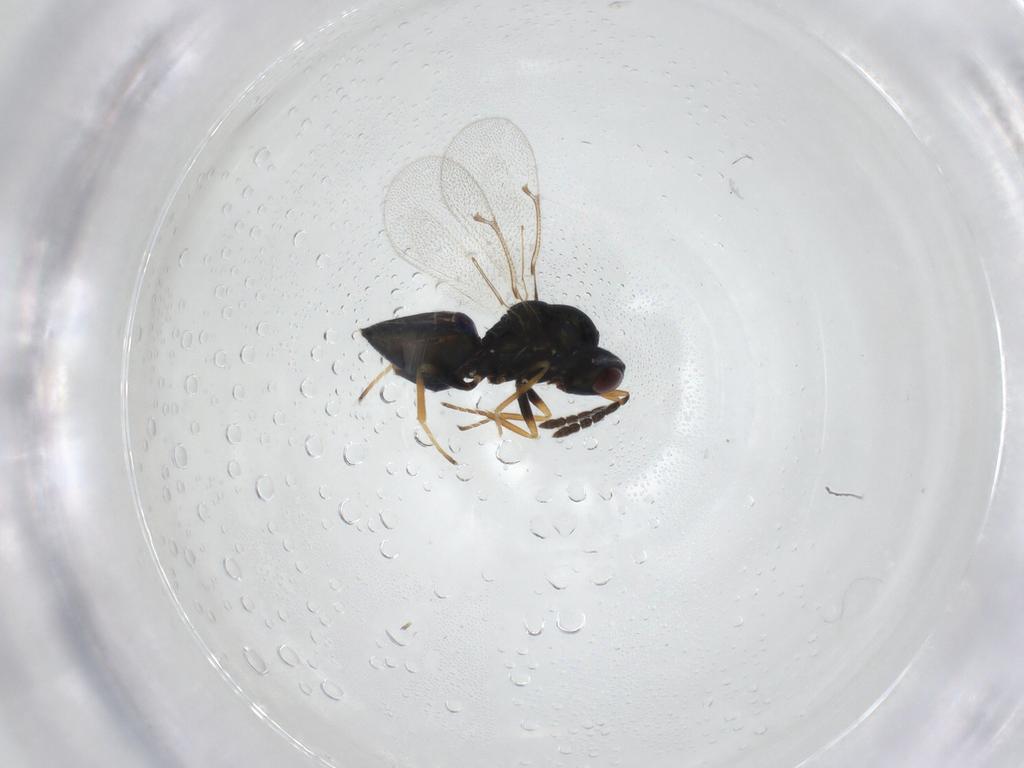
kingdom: Animalia
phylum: Arthropoda
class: Insecta
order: Hymenoptera
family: Eulophidae
